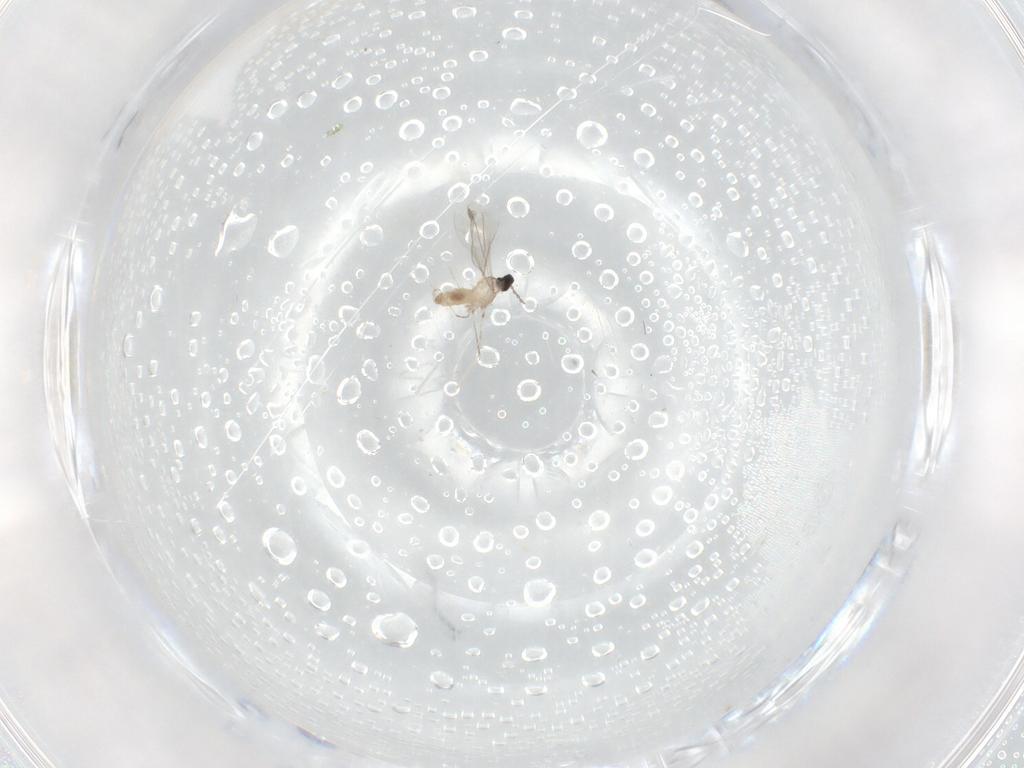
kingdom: Animalia
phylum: Arthropoda
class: Insecta
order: Diptera
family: Cecidomyiidae
